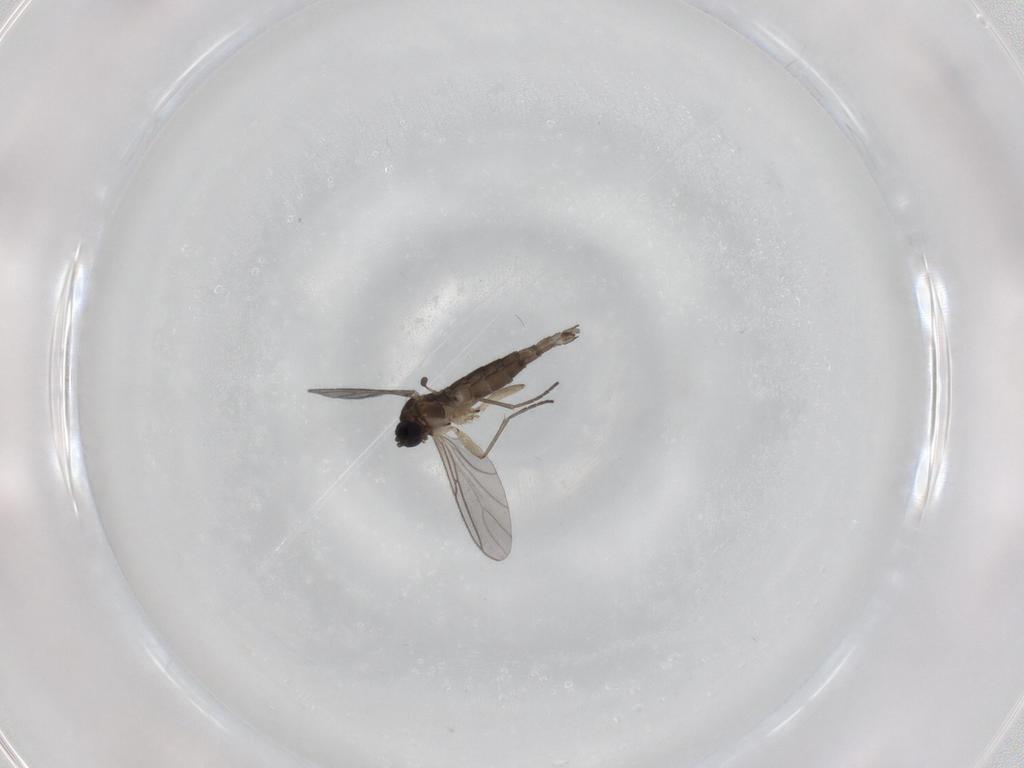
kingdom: Animalia
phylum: Arthropoda
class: Insecta
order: Diptera
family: Sciaridae
